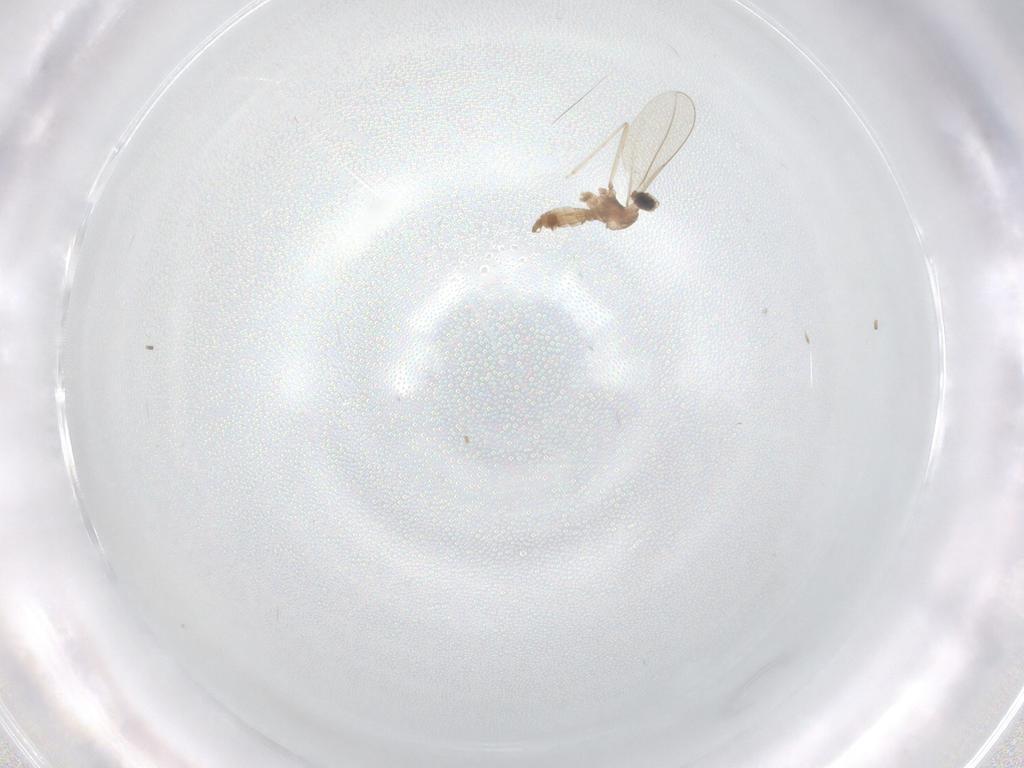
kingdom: Animalia
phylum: Arthropoda
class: Insecta
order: Diptera
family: Cecidomyiidae
